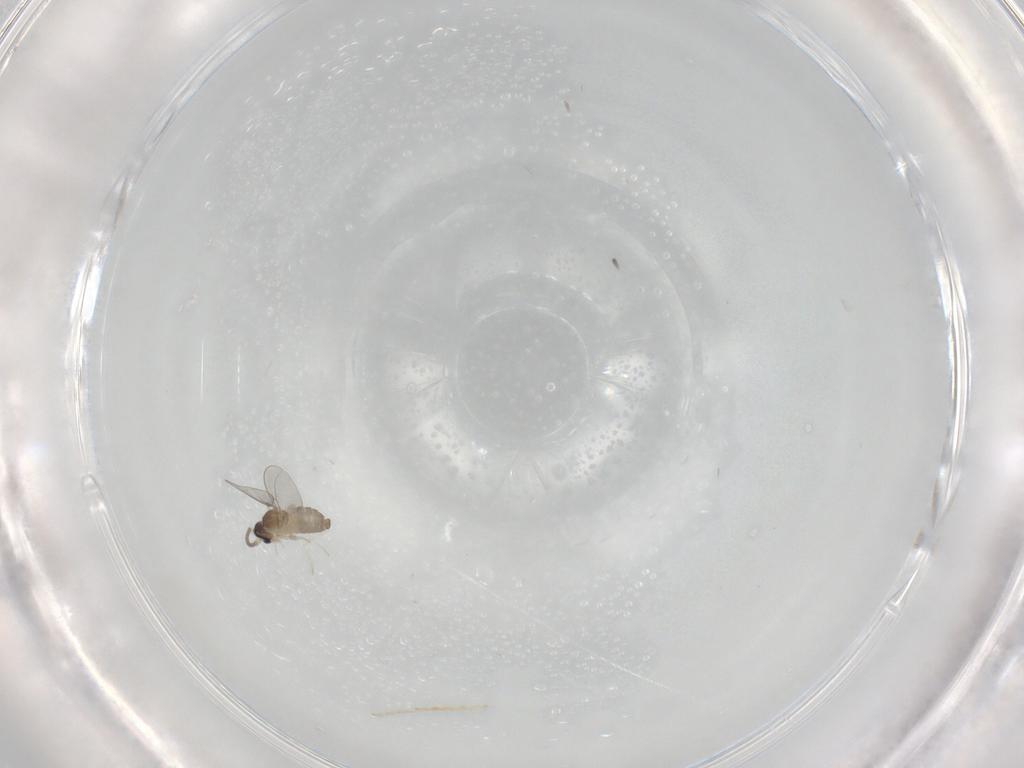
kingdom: Animalia
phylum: Arthropoda
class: Insecta
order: Diptera
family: Cecidomyiidae
